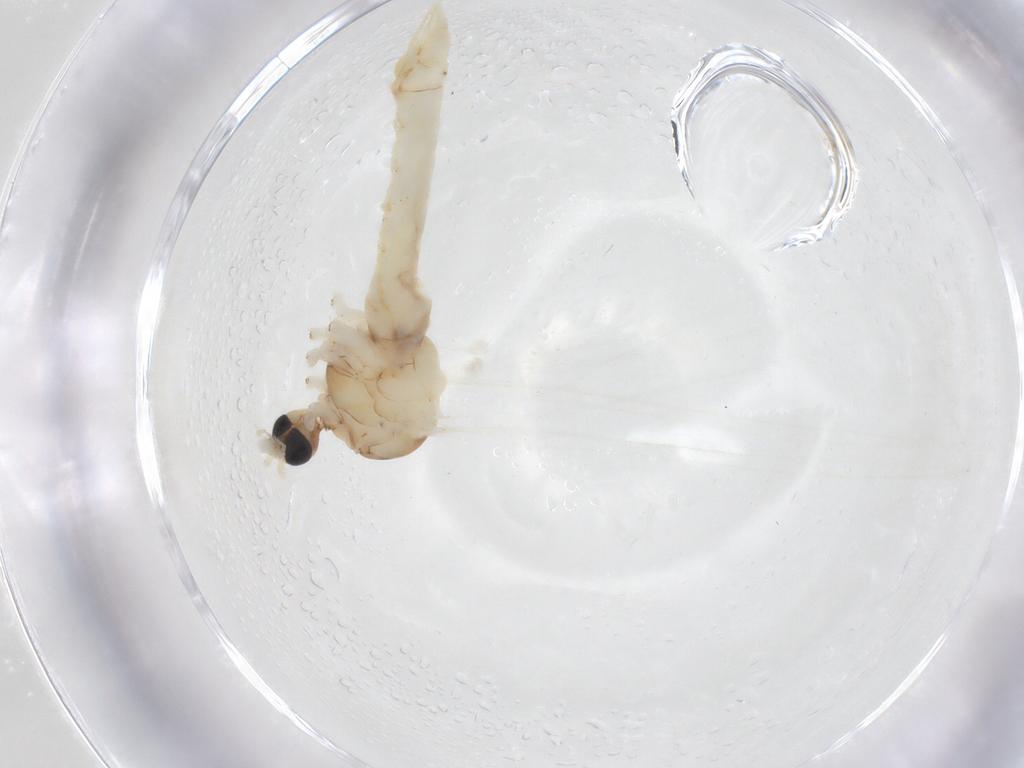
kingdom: Animalia
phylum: Arthropoda
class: Insecta
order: Diptera
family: Limoniidae
